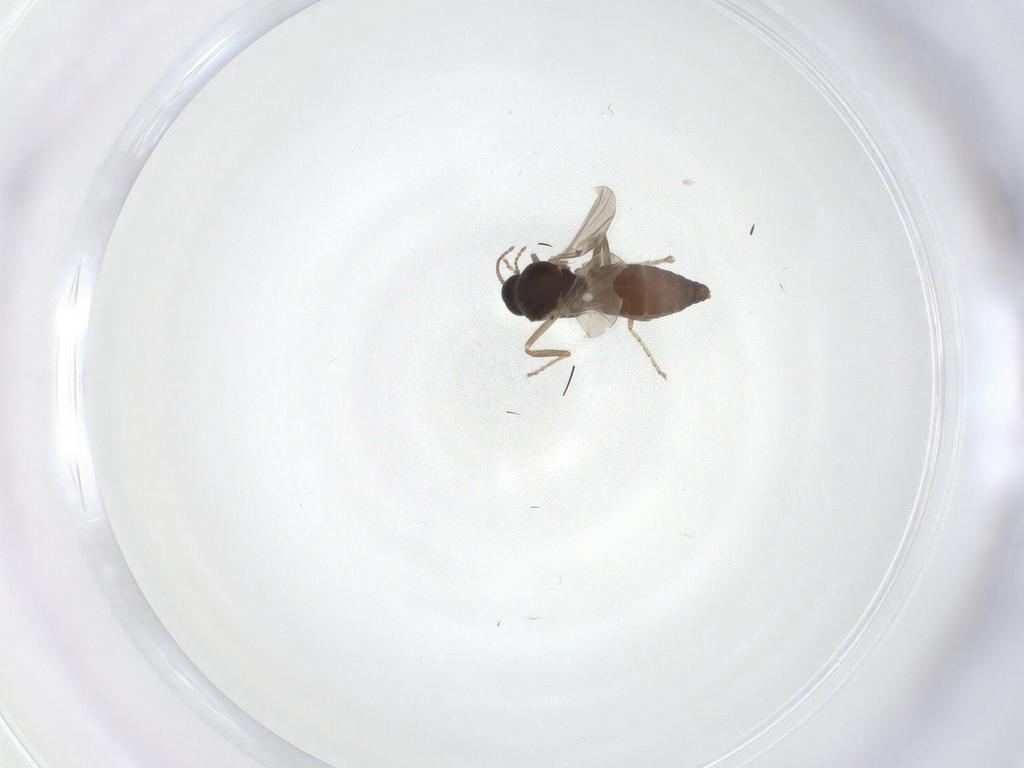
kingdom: Animalia
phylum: Arthropoda
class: Insecta
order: Diptera
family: Ceratopogonidae
